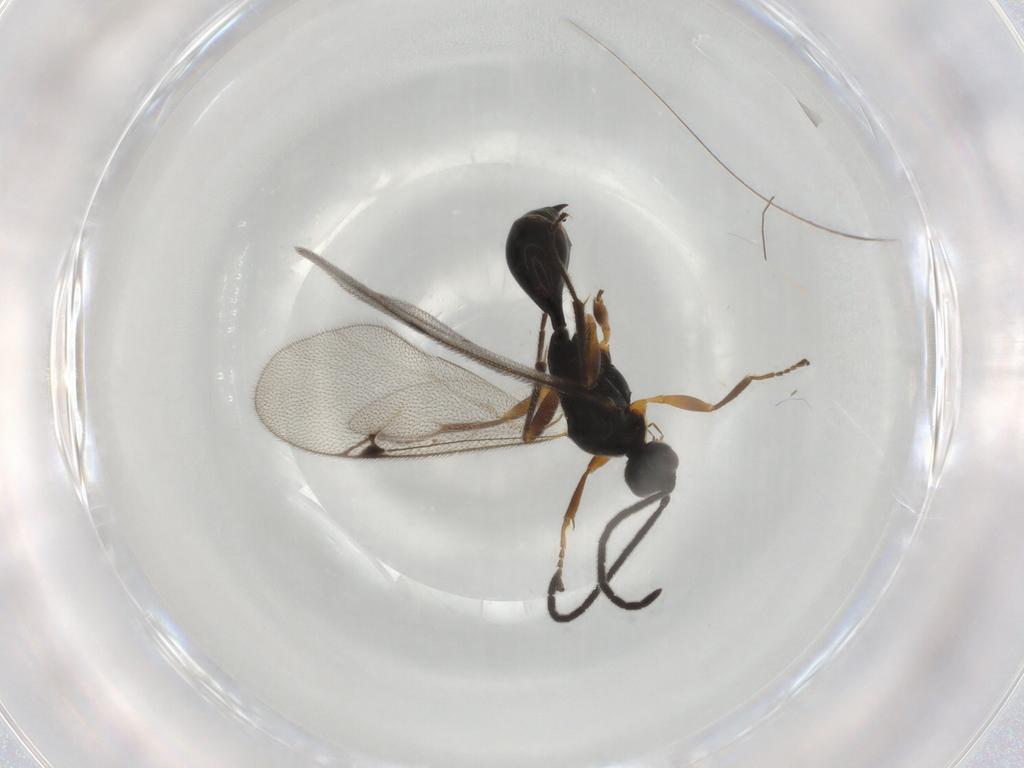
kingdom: Animalia
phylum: Arthropoda
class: Insecta
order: Hymenoptera
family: Proctotrupidae
